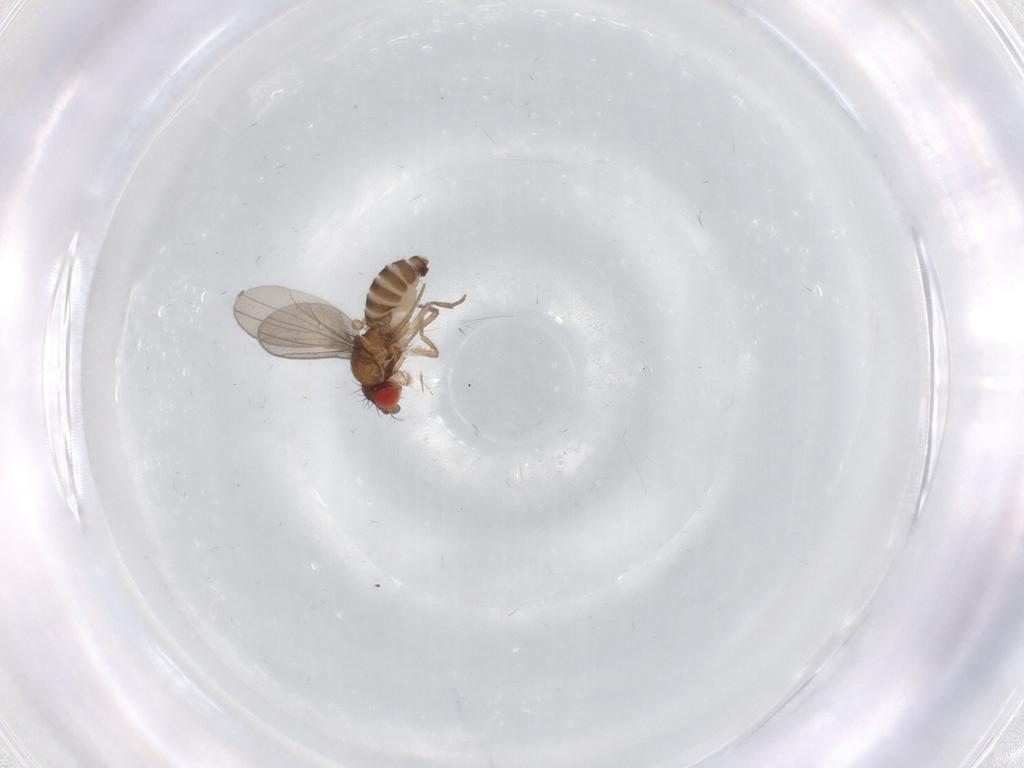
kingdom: Animalia
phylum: Arthropoda
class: Insecta
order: Diptera
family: Drosophilidae
